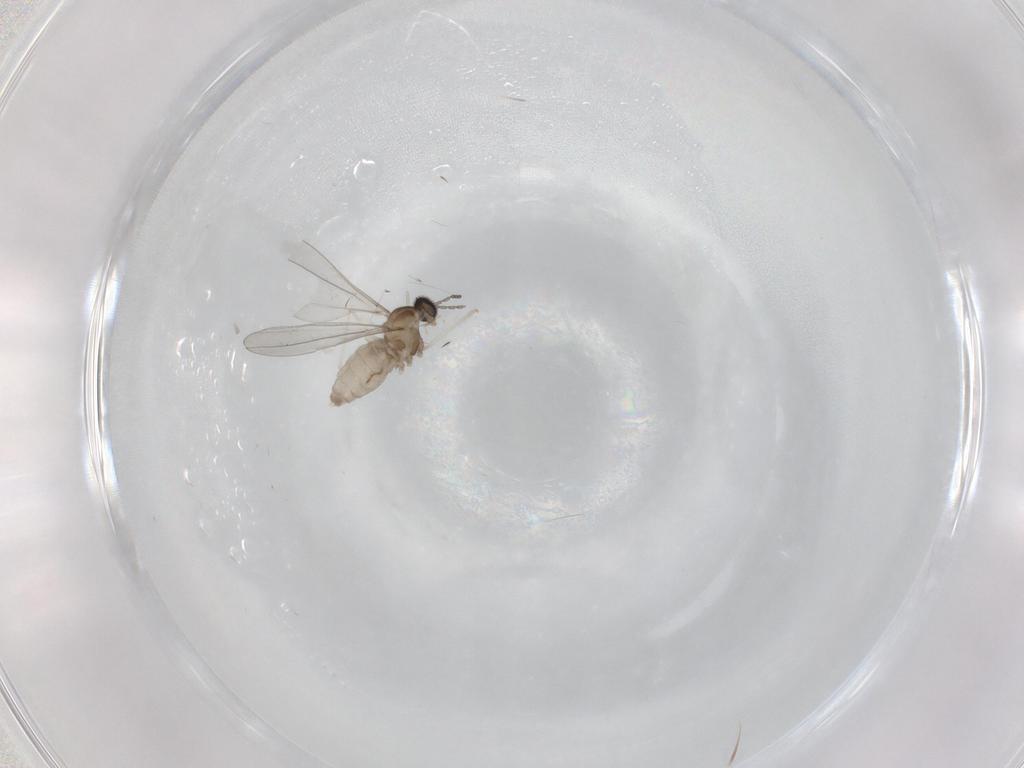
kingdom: Animalia
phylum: Arthropoda
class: Insecta
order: Diptera
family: Cecidomyiidae
